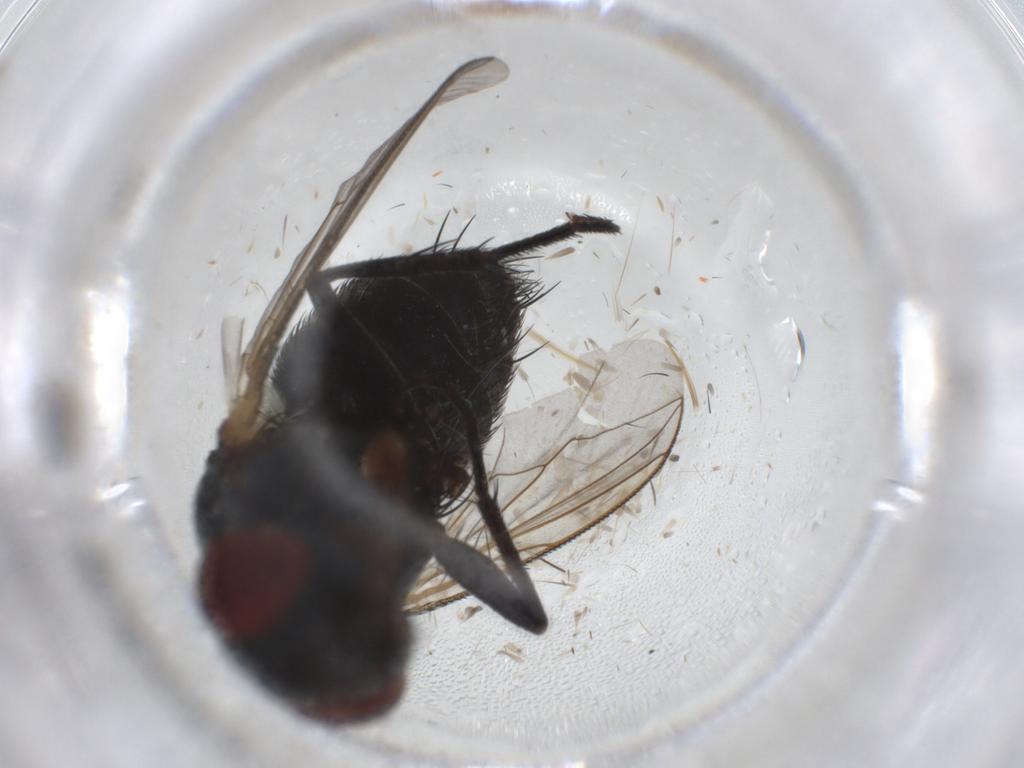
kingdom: Animalia
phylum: Arthropoda
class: Insecta
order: Diptera
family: Sarcophagidae
